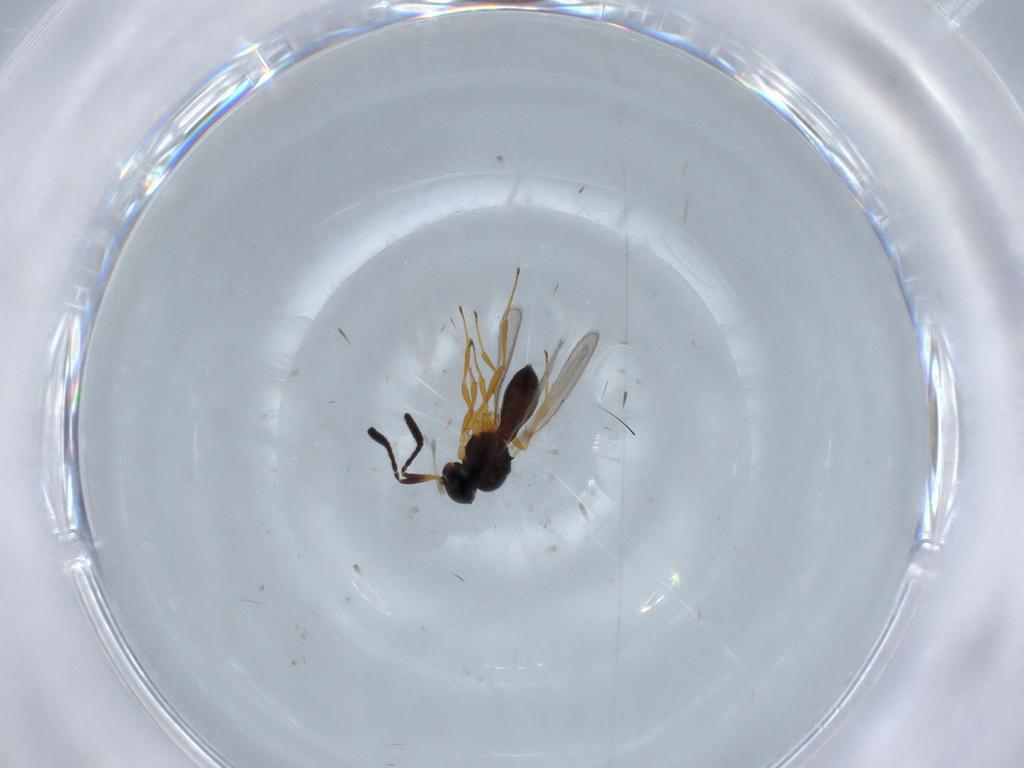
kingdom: Animalia
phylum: Arthropoda
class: Insecta
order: Hymenoptera
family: Scelionidae
